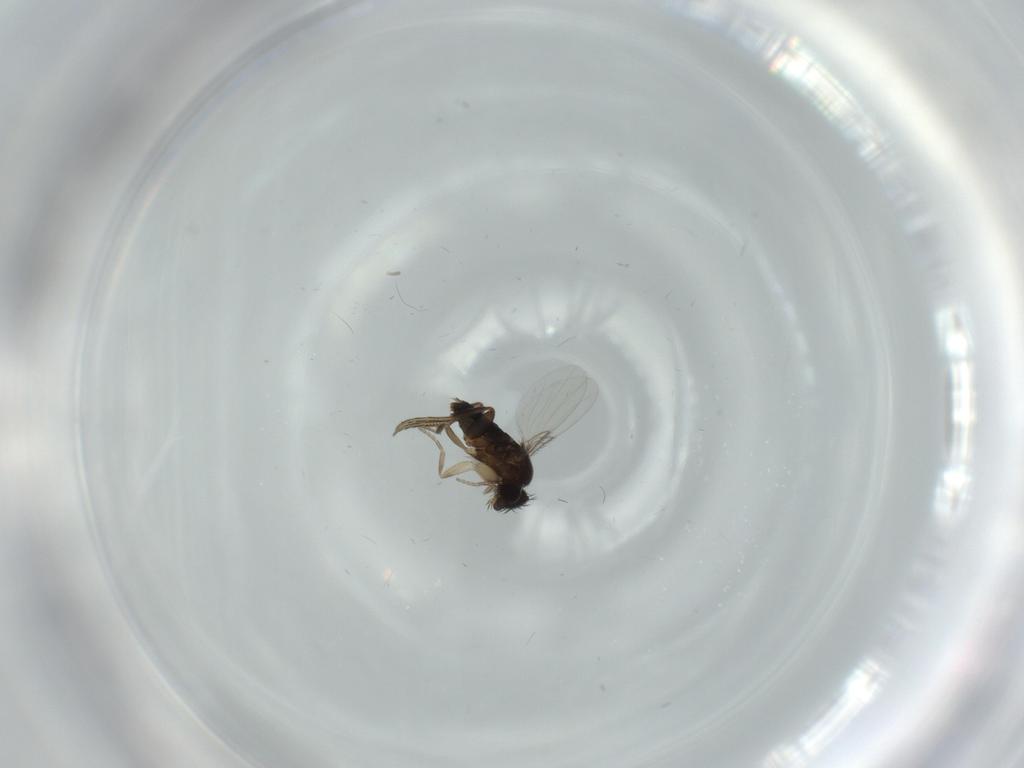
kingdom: Animalia
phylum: Arthropoda
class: Insecta
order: Diptera
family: Phoridae
